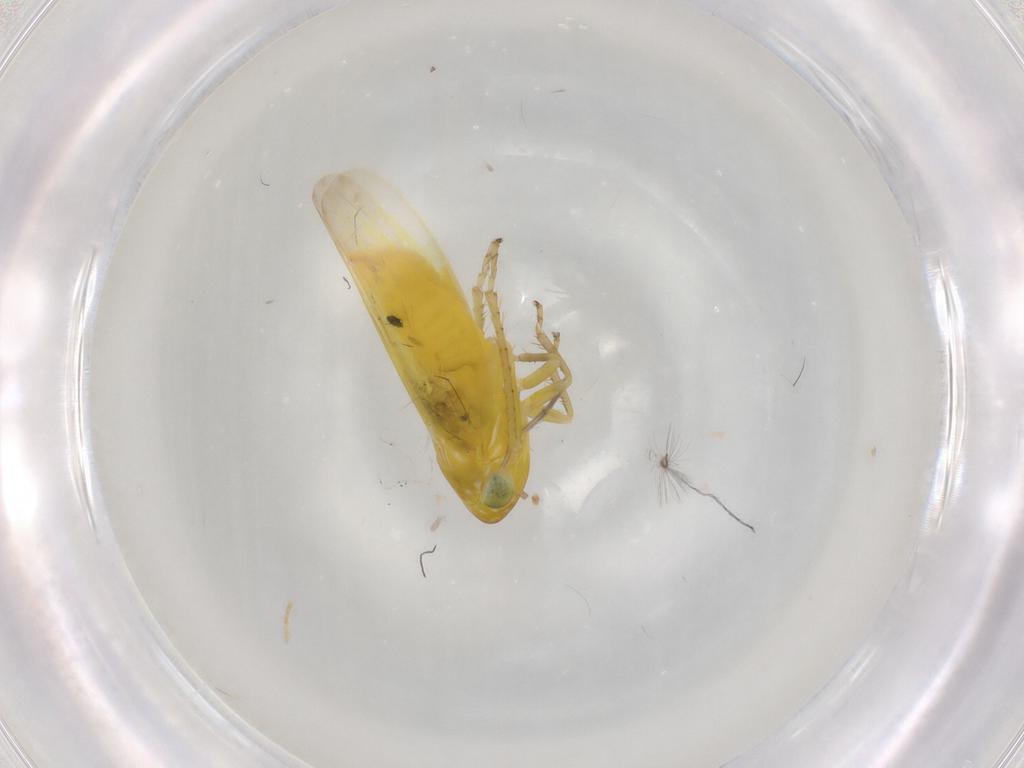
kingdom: Animalia
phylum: Arthropoda
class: Insecta
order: Hemiptera
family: Cicadellidae
